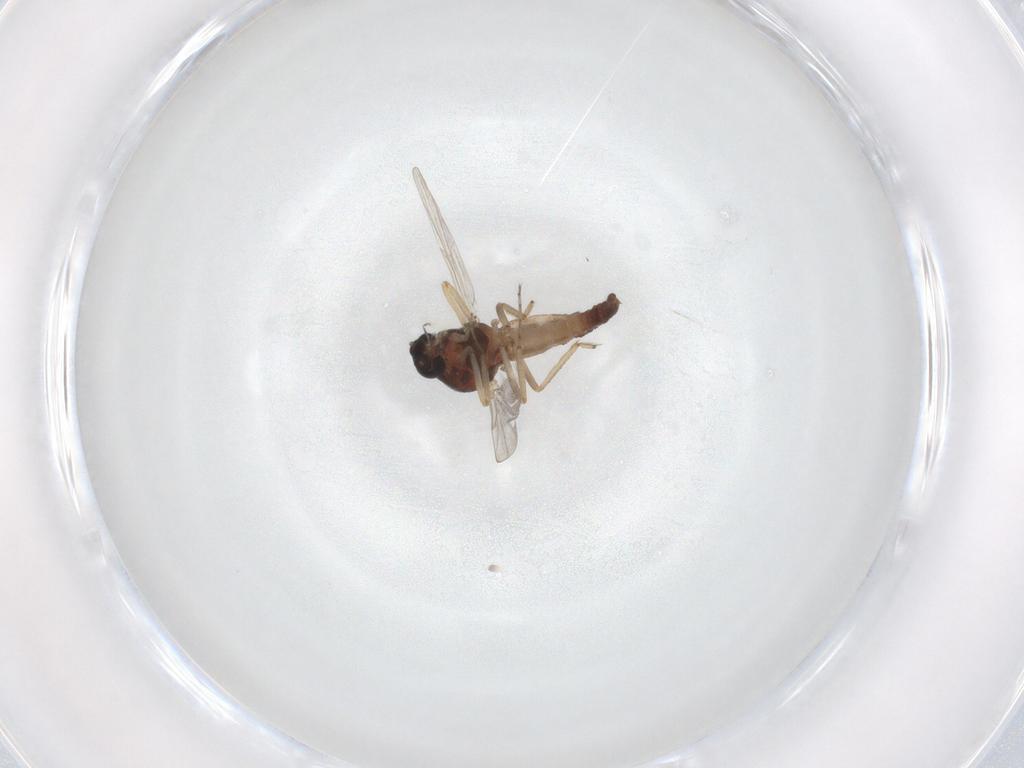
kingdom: Animalia
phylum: Arthropoda
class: Insecta
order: Diptera
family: Ceratopogonidae
